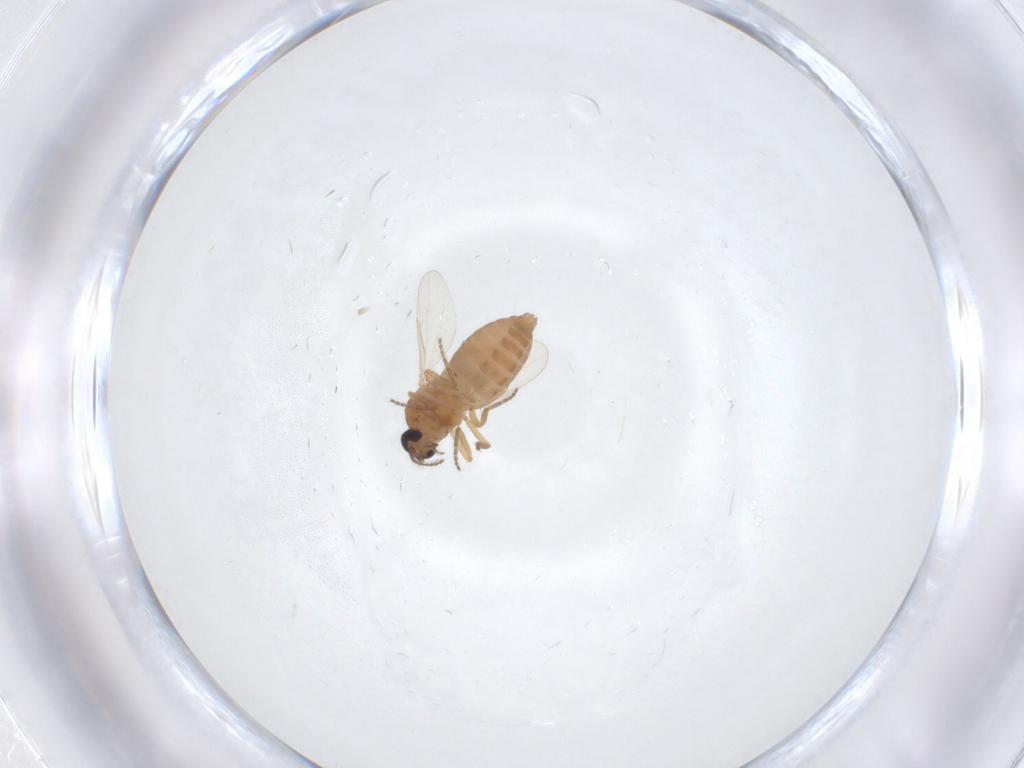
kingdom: Animalia
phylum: Arthropoda
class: Insecta
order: Diptera
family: Ceratopogonidae
